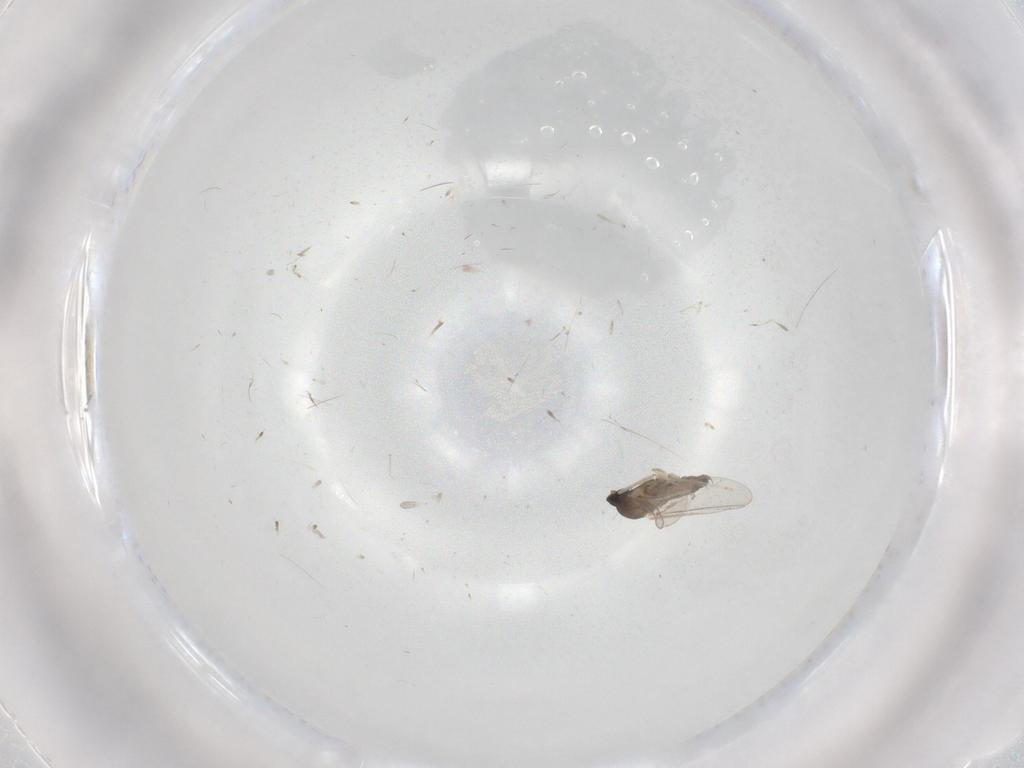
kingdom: Animalia
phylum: Arthropoda
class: Insecta
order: Diptera
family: Cecidomyiidae
